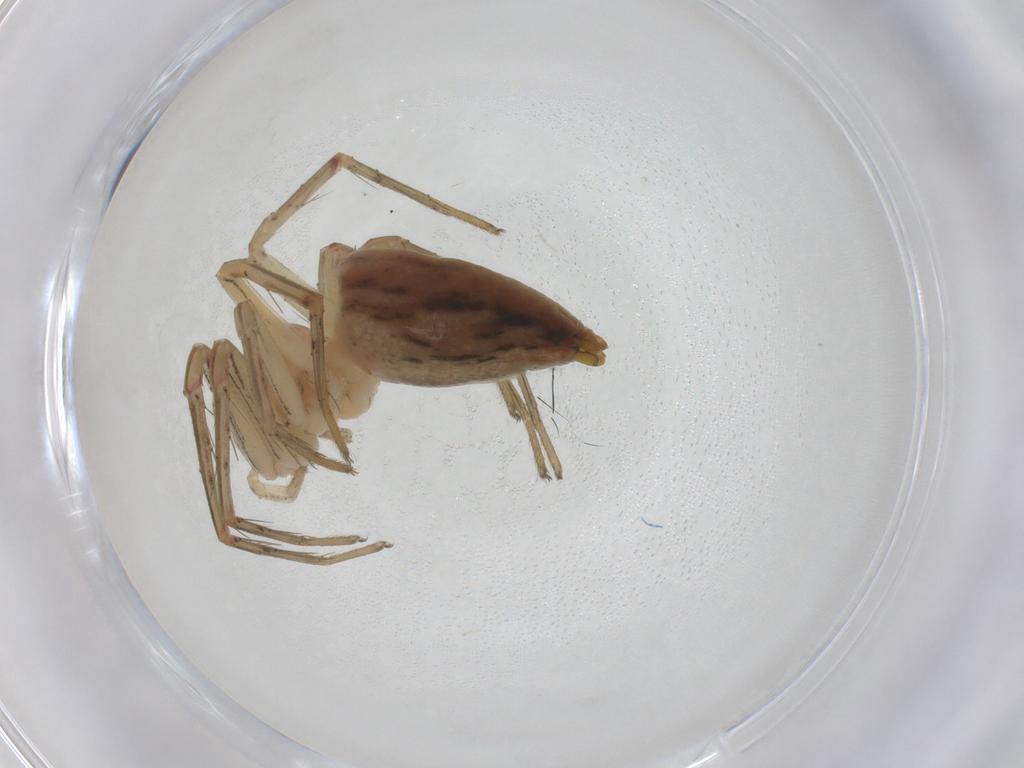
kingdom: Animalia
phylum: Arthropoda
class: Arachnida
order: Araneae
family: Oxyopidae
